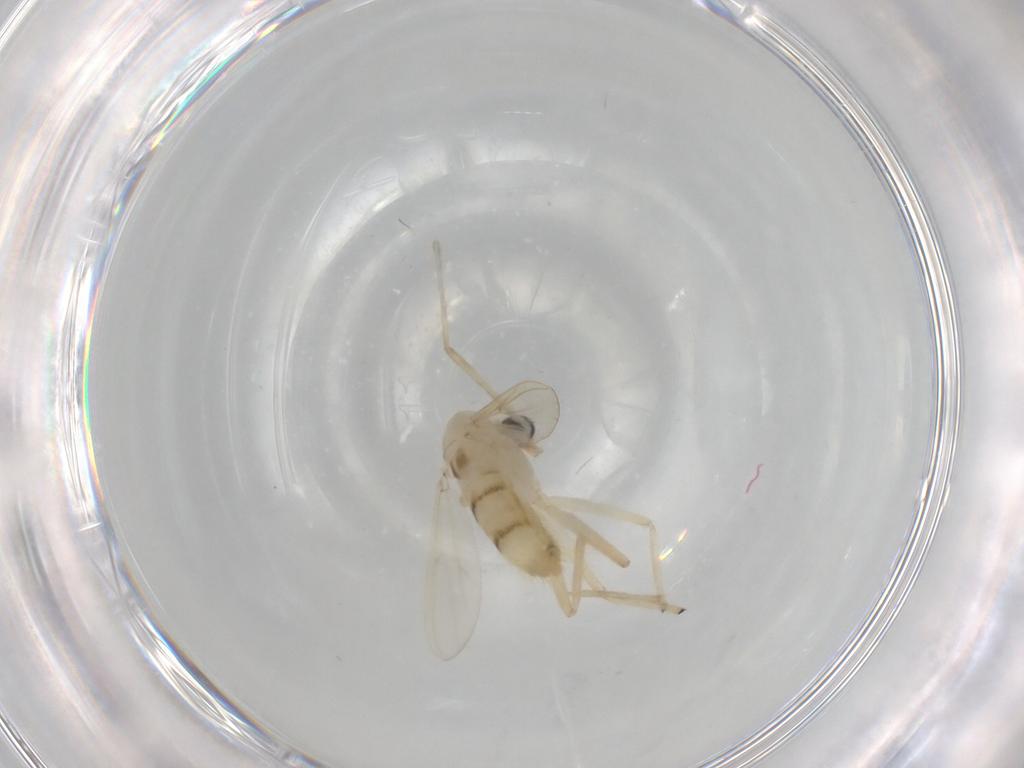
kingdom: Animalia
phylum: Arthropoda
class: Insecta
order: Diptera
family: Chironomidae
